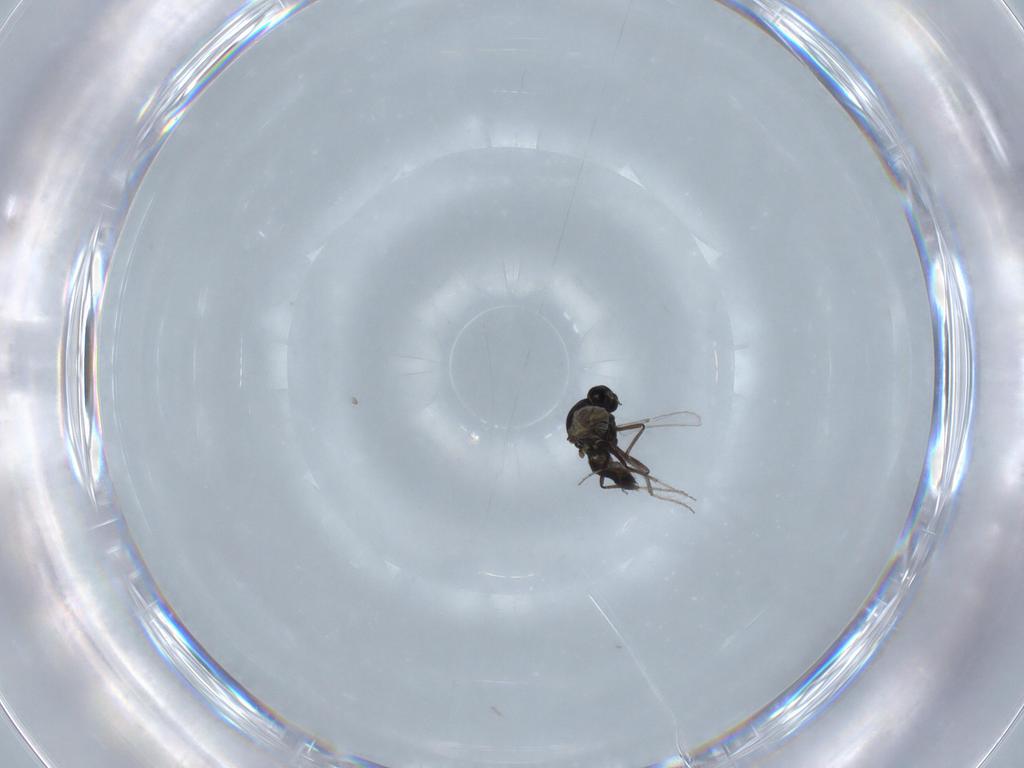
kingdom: Animalia
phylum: Arthropoda
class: Insecta
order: Diptera
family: Ceratopogonidae
